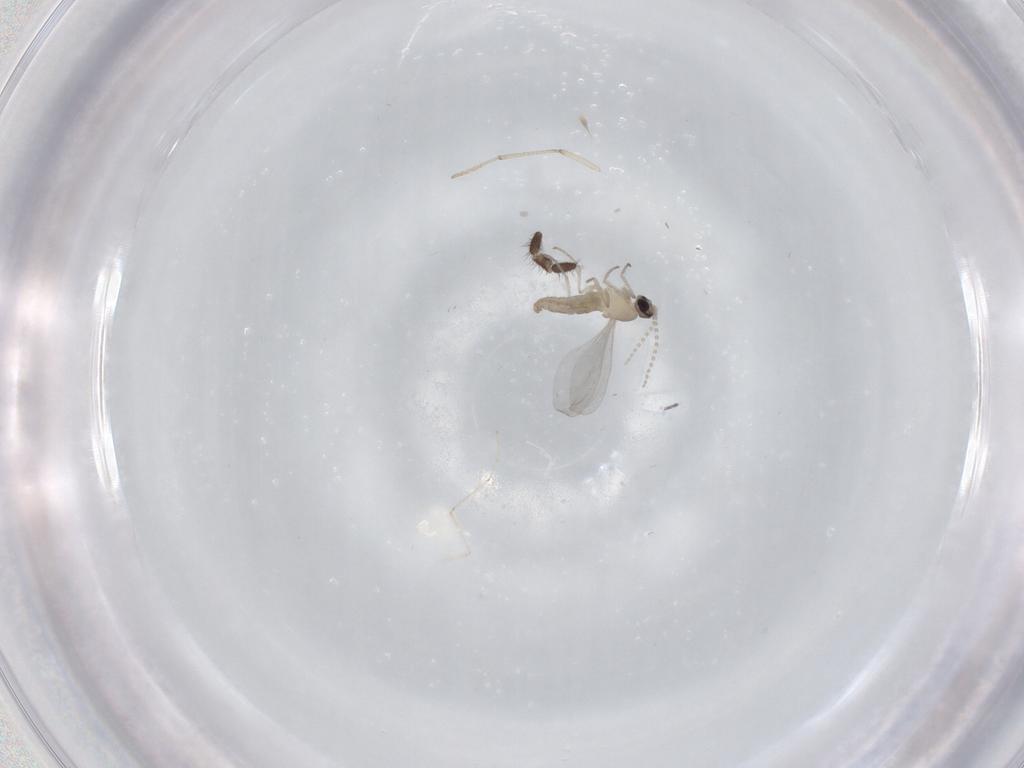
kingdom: Animalia
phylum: Arthropoda
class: Insecta
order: Diptera
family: Cecidomyiidae
